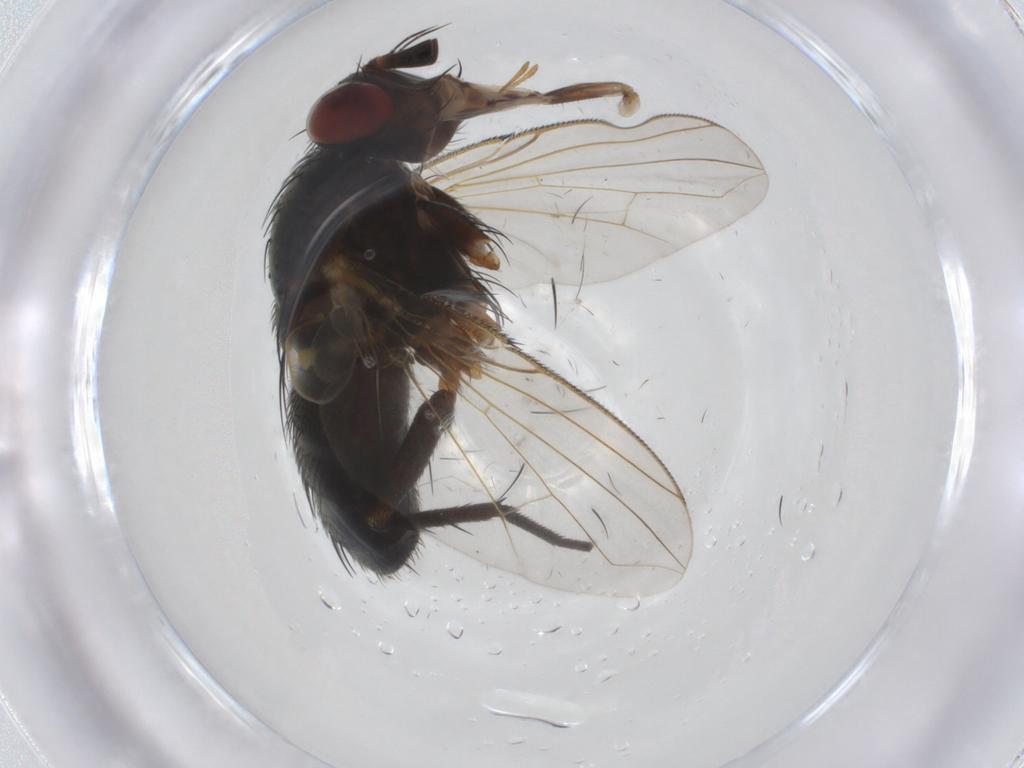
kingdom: Animalia
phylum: Arthropoda
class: Insecta
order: Diptera
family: Tachinidae
